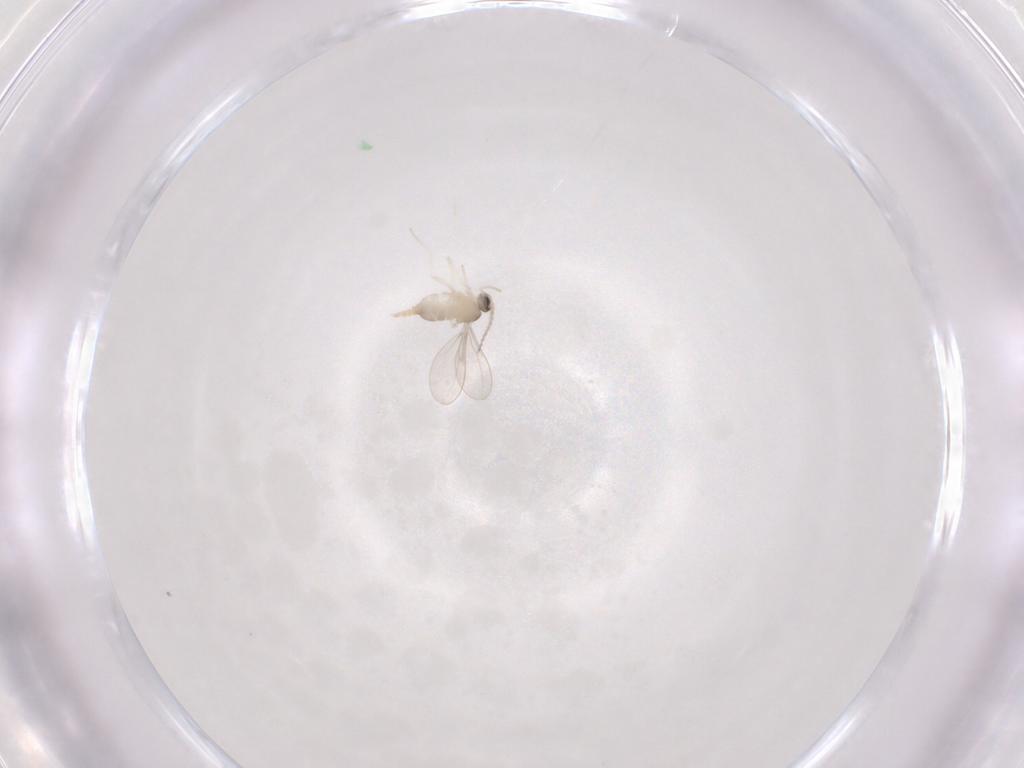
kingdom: Animalia
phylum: Arthropoda
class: Insecta
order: Diptera
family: Cecidomyiidae
